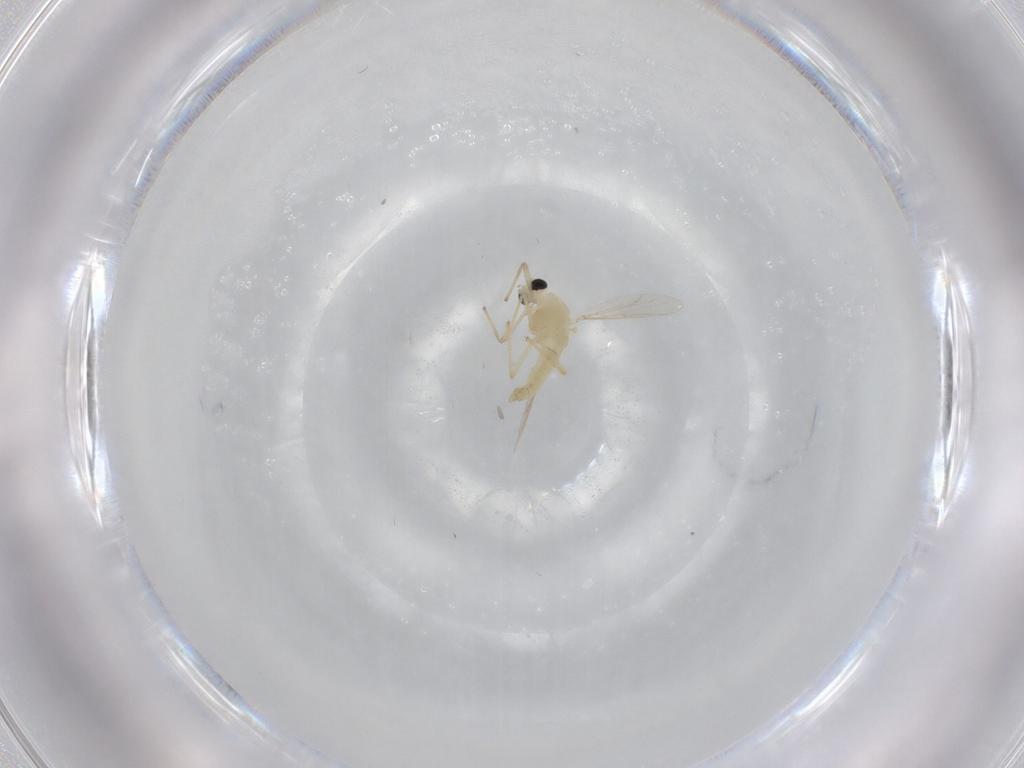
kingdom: Animalia
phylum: Arthropoda
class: Insecta
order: Diptera
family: Chironomidae
